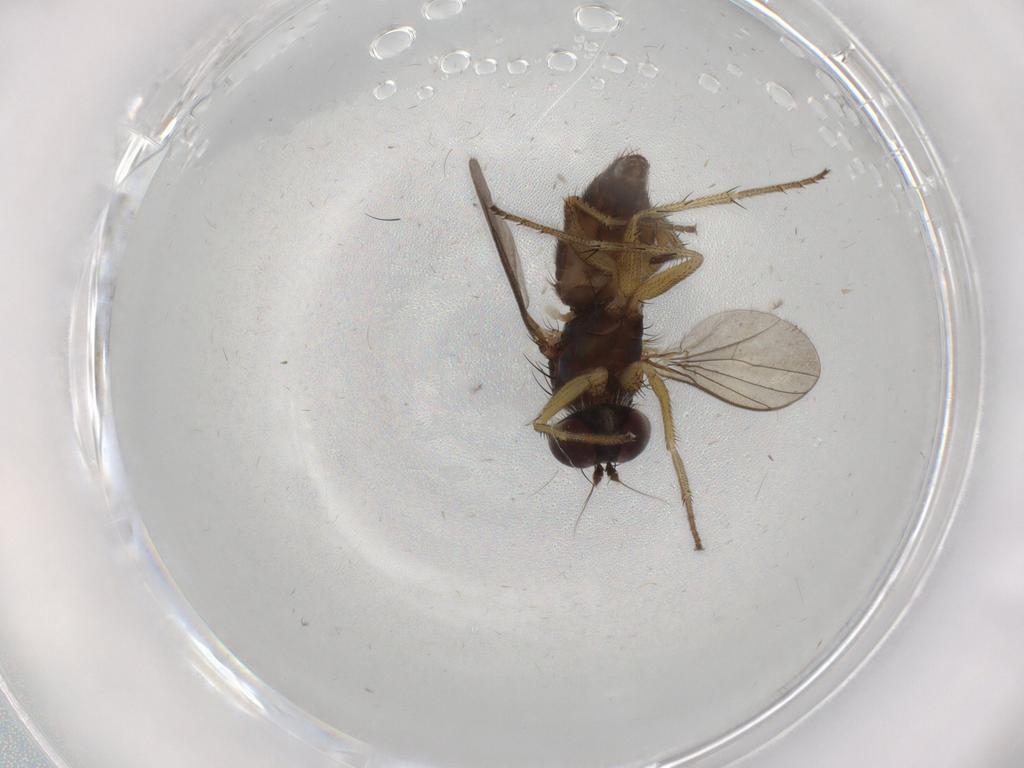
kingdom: Animalia
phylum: Arthropoda
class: Insecta
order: Diptera
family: Dolichopodidae
